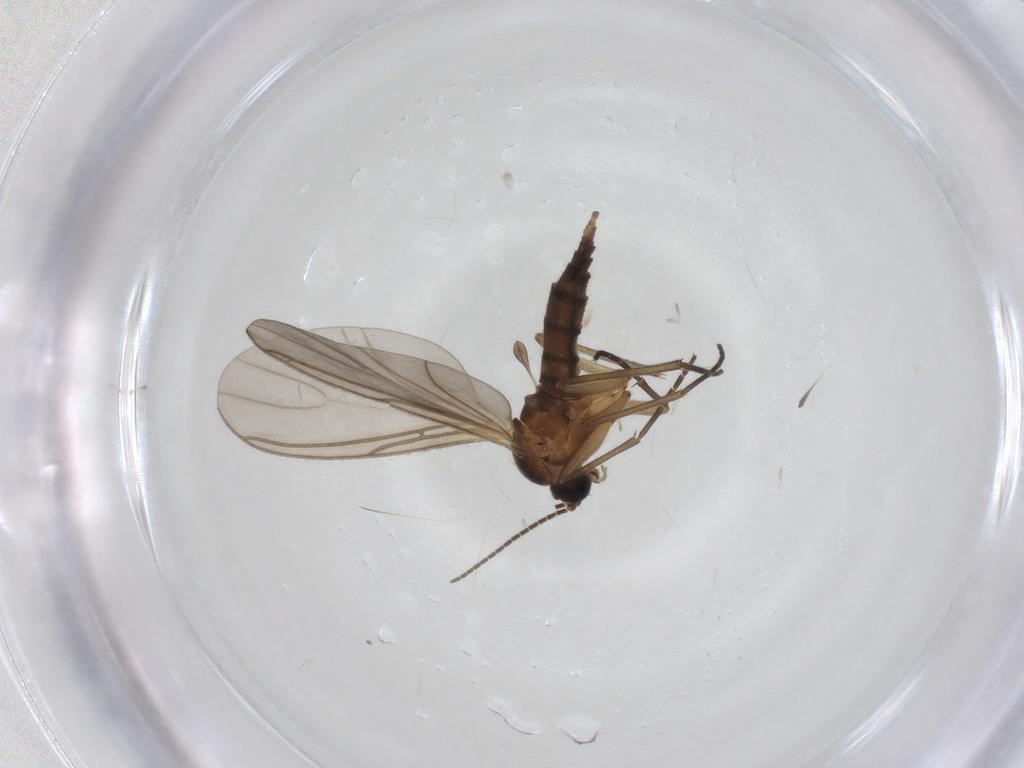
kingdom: Animalia
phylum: Arthropoda
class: Insecta
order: Diptera
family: Sciaridae
